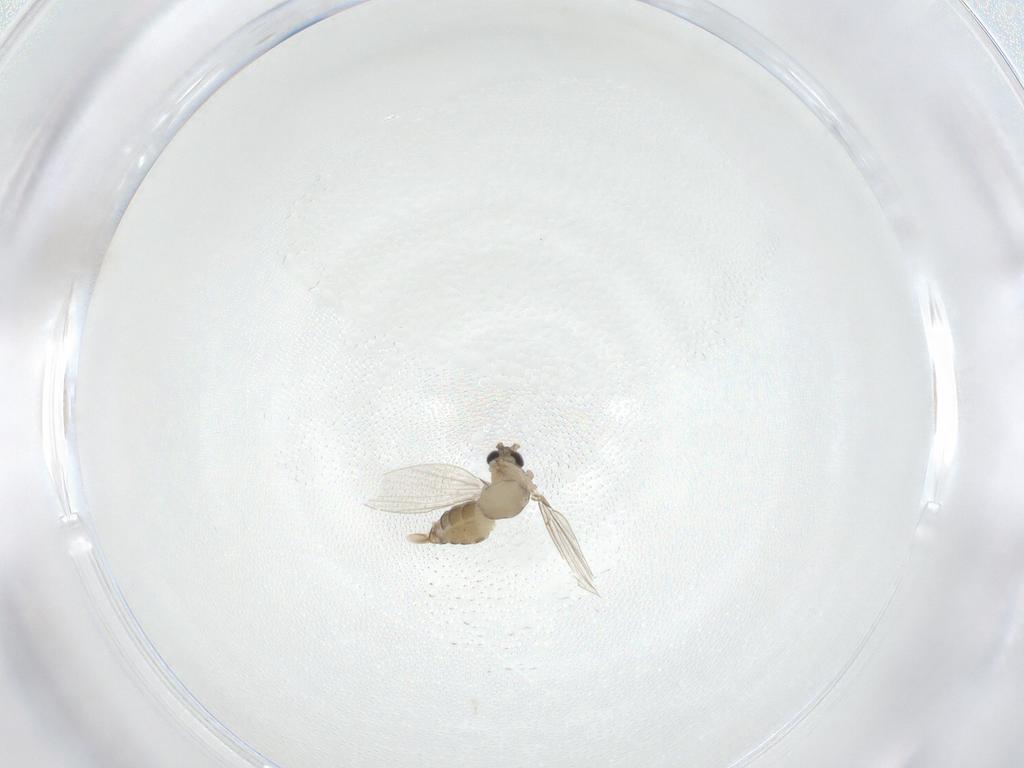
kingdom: Animalia
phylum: Arthropoda
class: Insecta
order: Diptera
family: Psychodidae
